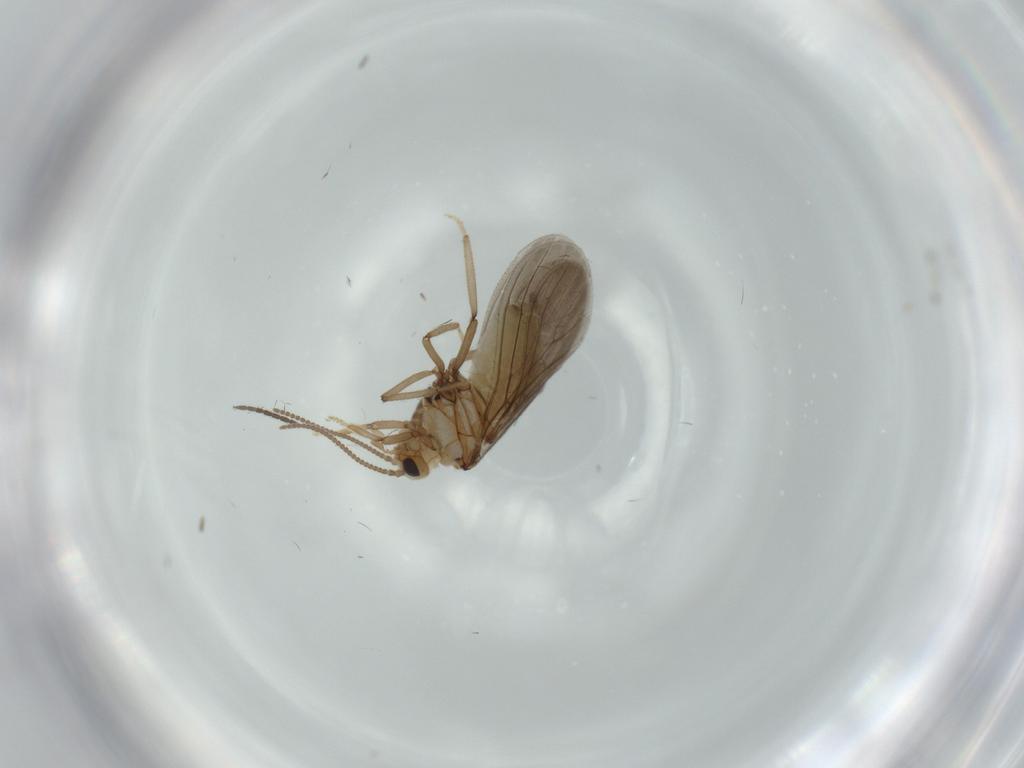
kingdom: Animalia
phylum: Arthropoda
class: Insecta
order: Neuroptera
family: Coniopterygidae
